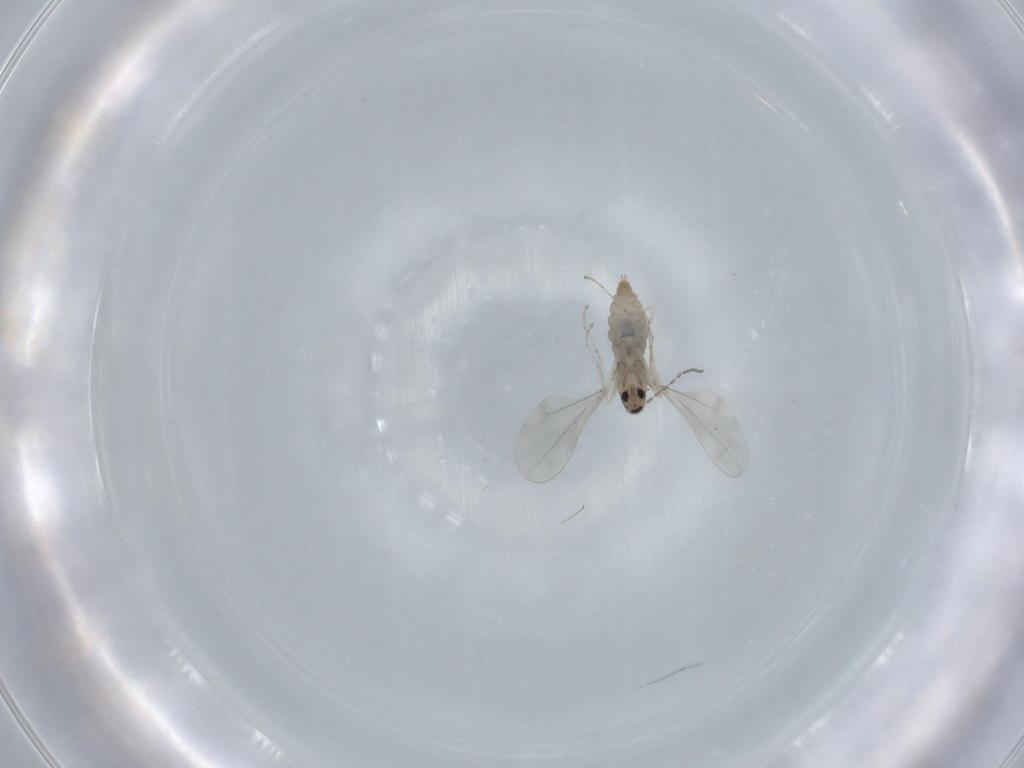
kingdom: Animalia
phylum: Arthropoda
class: Insecta
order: Diptera
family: Cecidomyiidae
